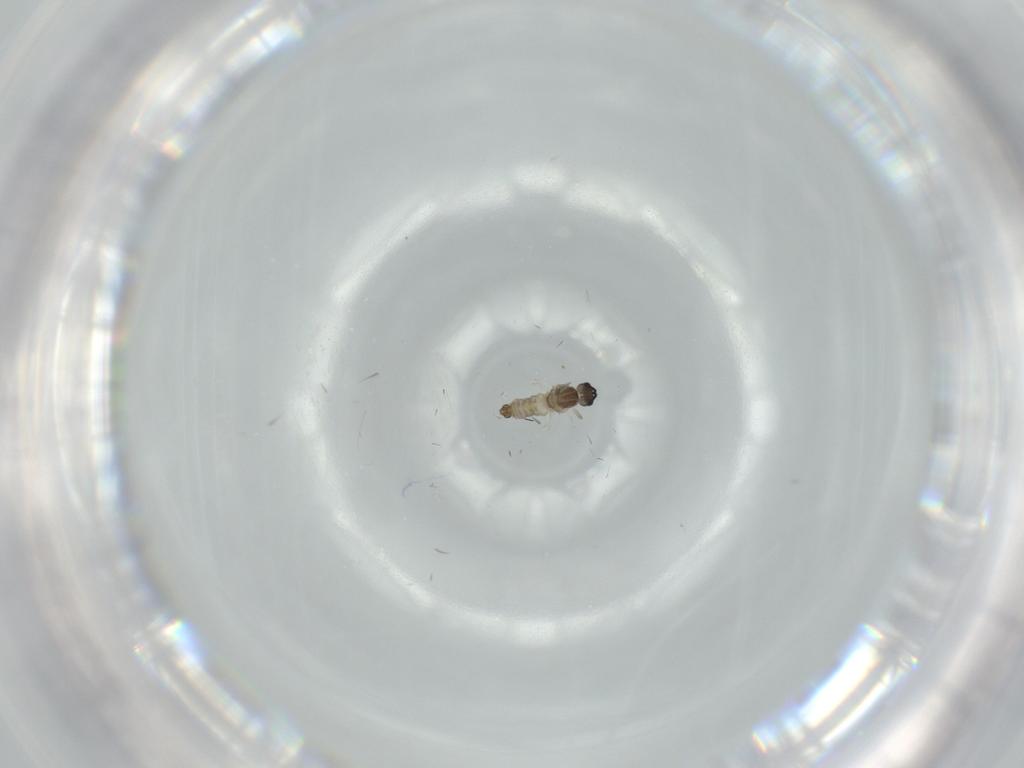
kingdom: Animalia
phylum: Arthropoda
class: Insecta
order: Diptera
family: Cecidomyiidae
